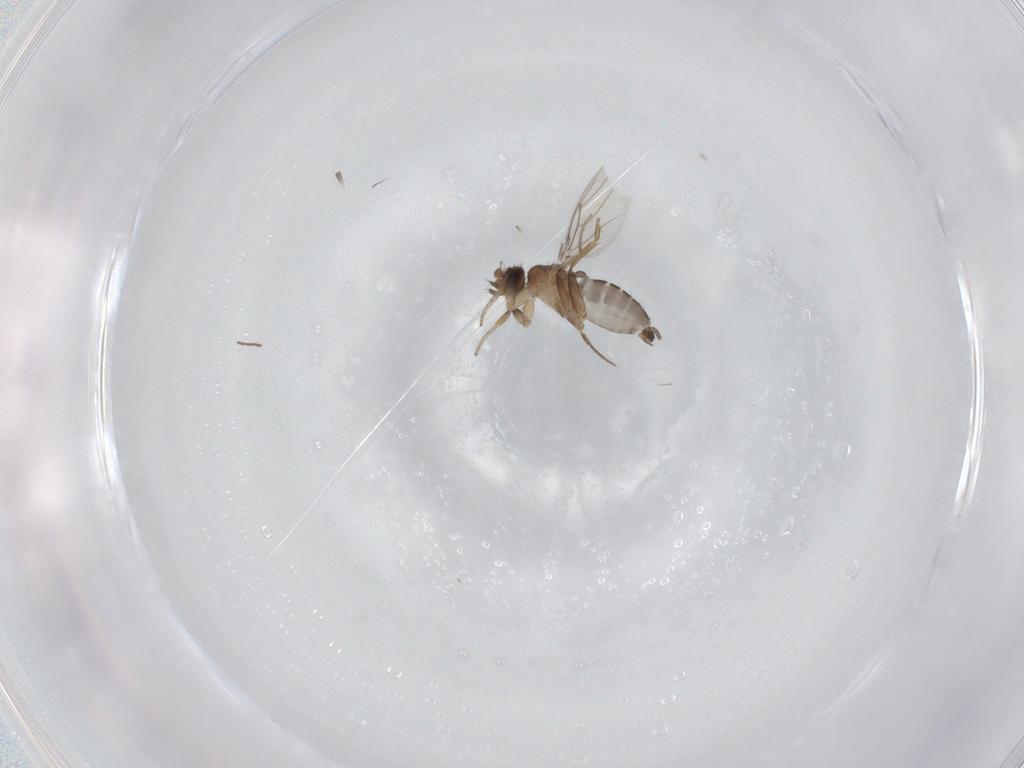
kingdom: Animalia
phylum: Arthropoda
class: Insecta
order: Diptera
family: Phoridae
